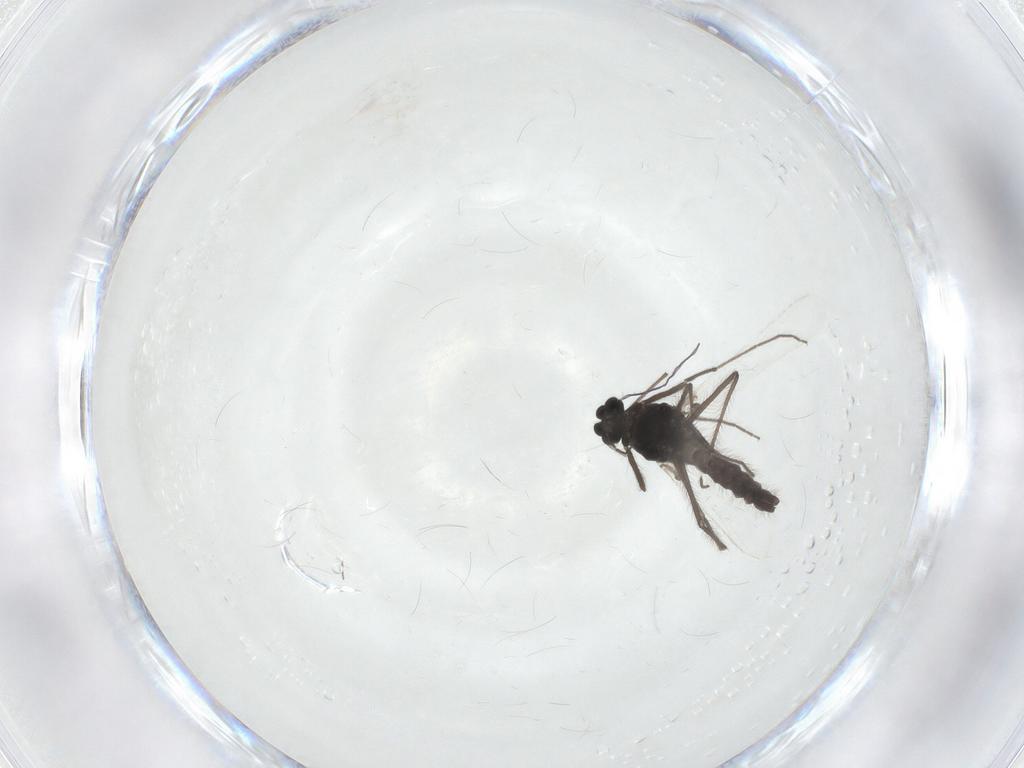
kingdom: Animalia
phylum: Arthropoda
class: Insecta
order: Diptera
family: Chironomidae
